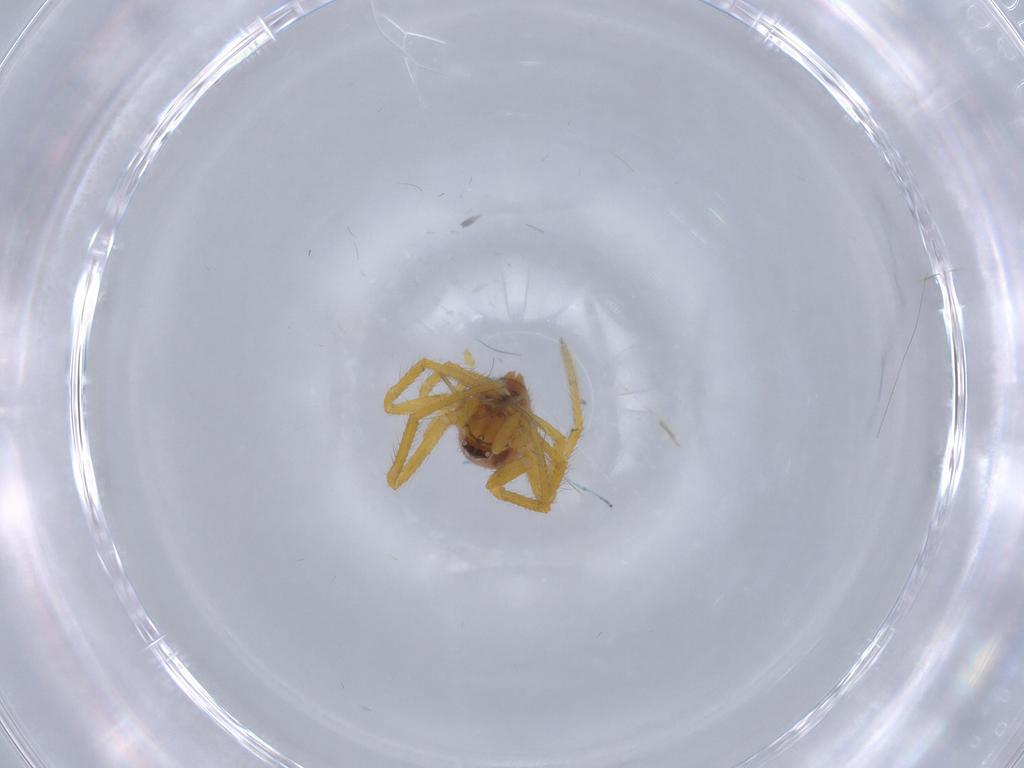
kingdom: Animalia
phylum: Arthropoda
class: Arachnida
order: Araneae
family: Theridiidae
